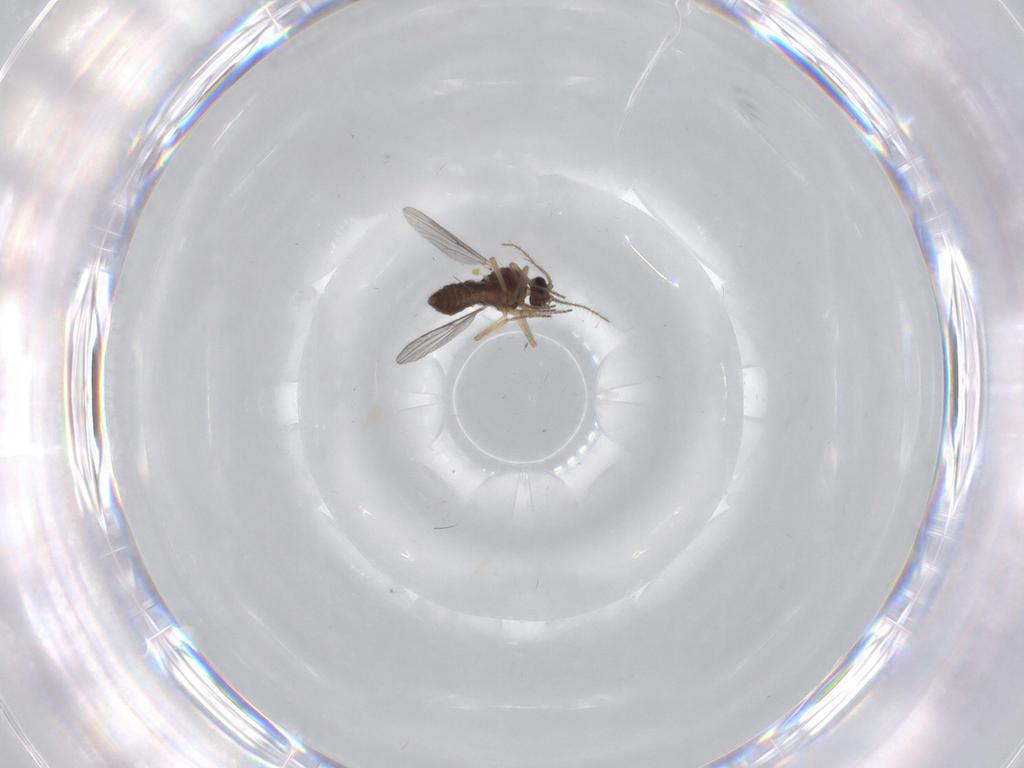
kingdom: Animalia
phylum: Arthropoda
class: Insecta
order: Diptera
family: Ceratopogonidae
